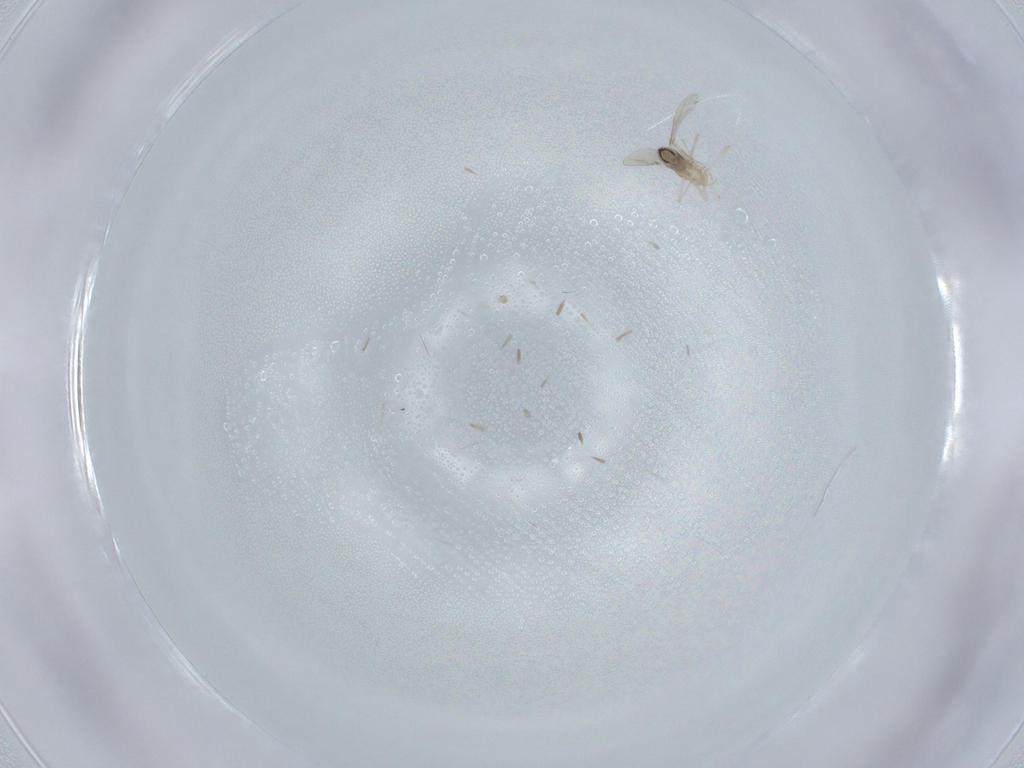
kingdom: Animalia
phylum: Arthropoda
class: Insecta
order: Diptera
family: Cecidomyiidae
